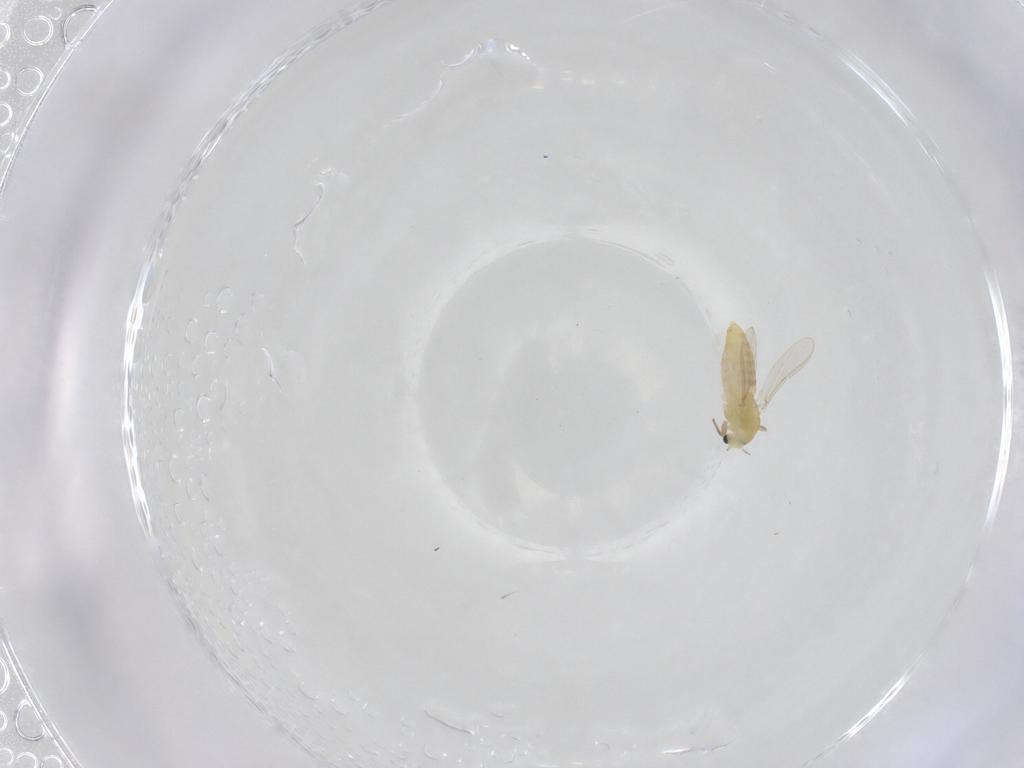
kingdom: Animalia
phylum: Arthropoda
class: Insecta
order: Diptera
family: Chironomidae
